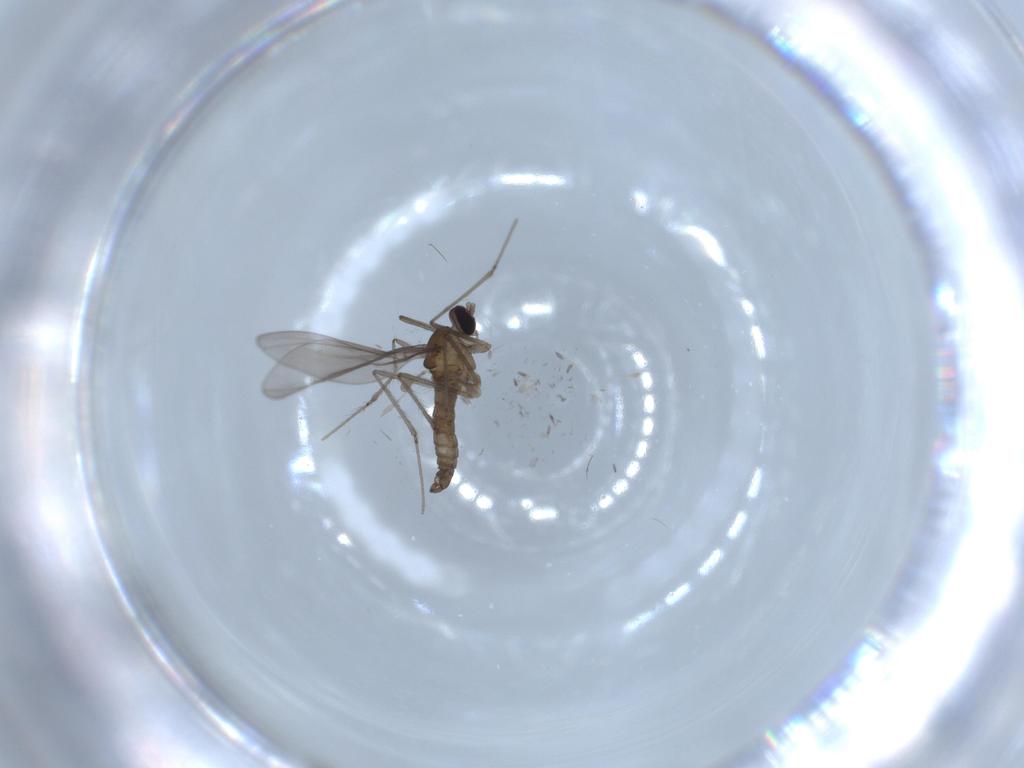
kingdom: Animalia
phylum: Arthropoda
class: Insecta
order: Diptera
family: Cecidomyiidae
